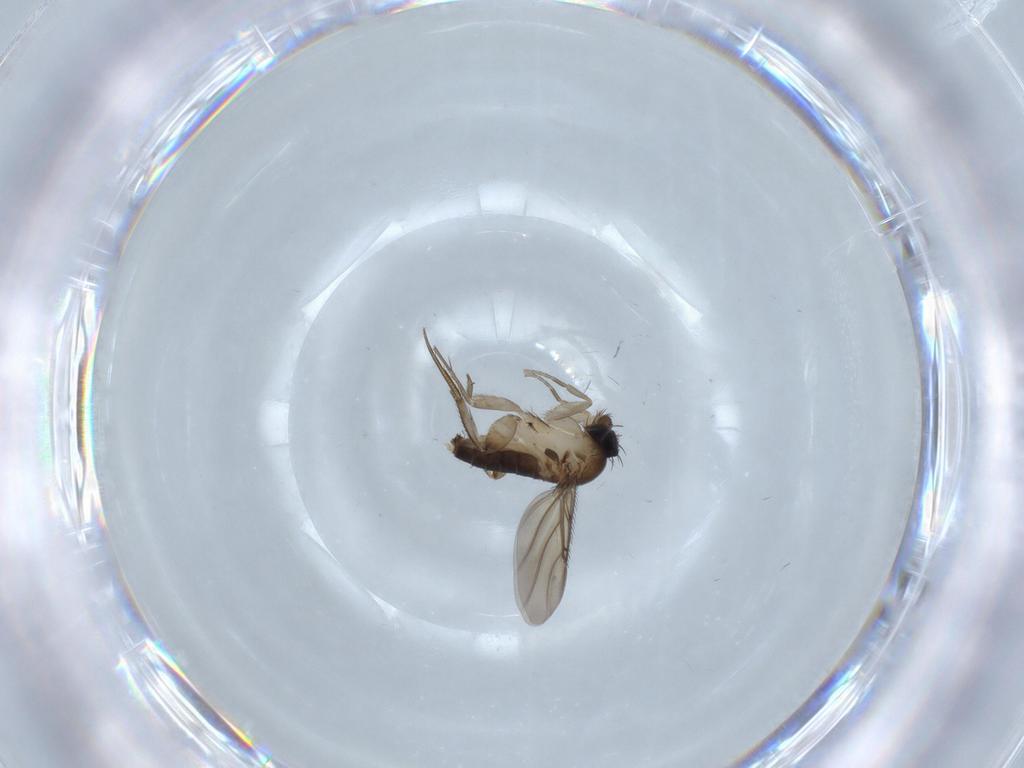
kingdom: Animalia
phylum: Arthropoda
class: Insecta
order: Diptera
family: Phoridae
